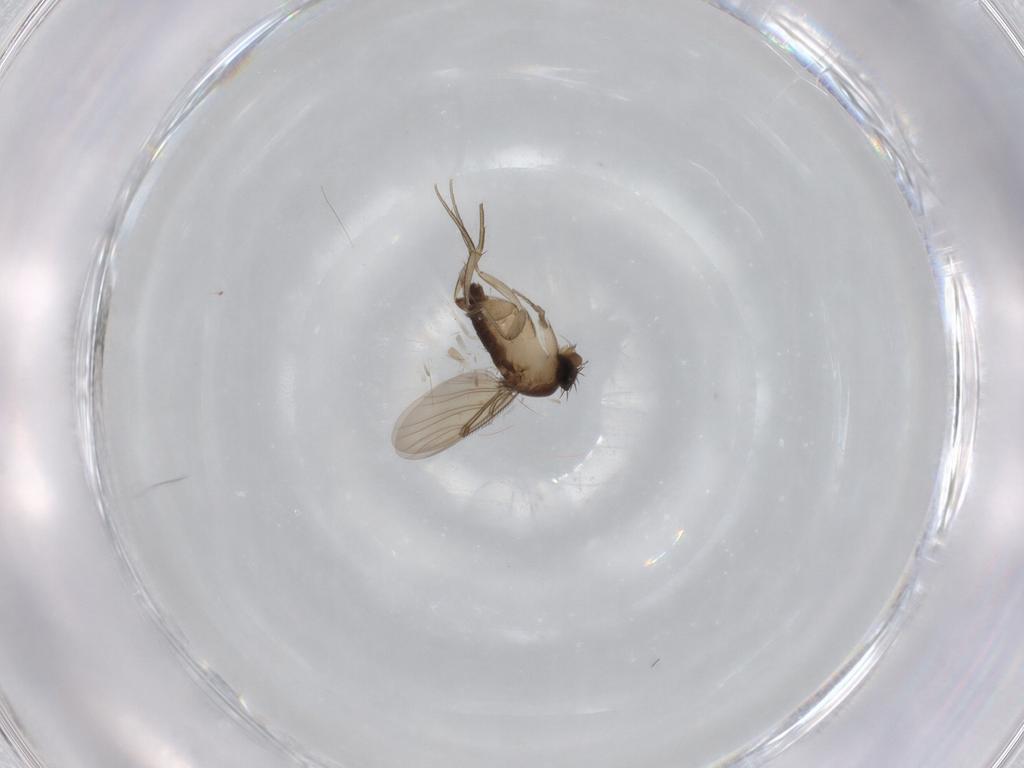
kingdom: Animalia
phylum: Arthropoda
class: Insecta
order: Diptera
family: Phoridae
